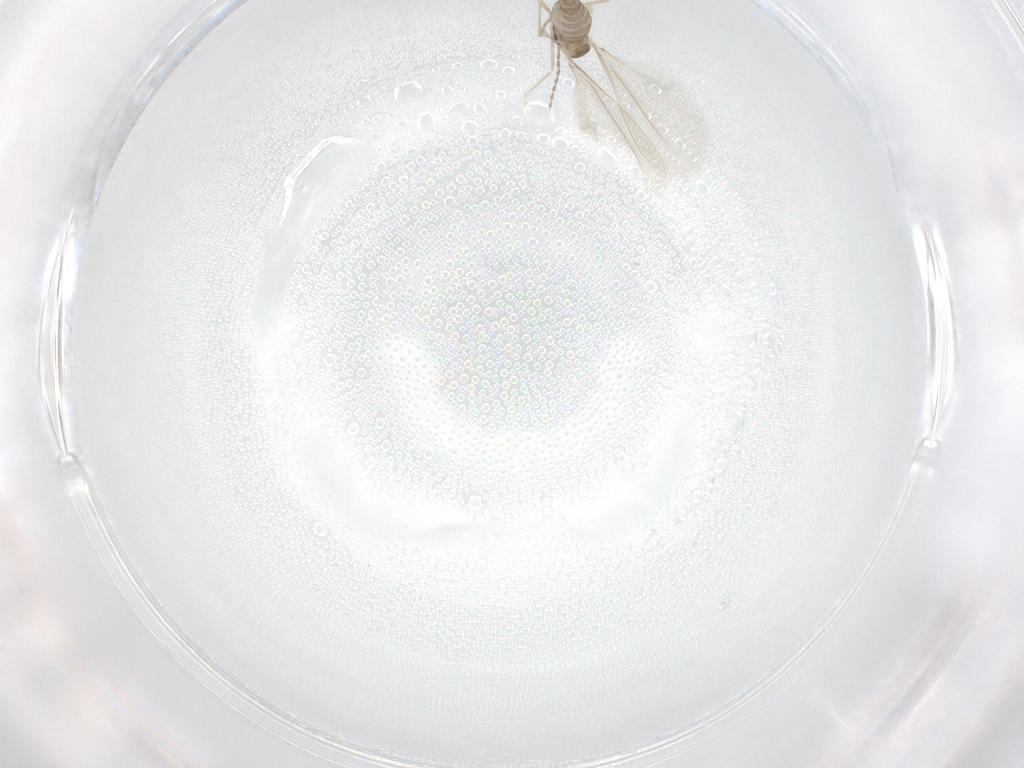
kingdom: Animalia
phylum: Arthropoda
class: Insecta
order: Diptera
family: Cecidomyiidae
